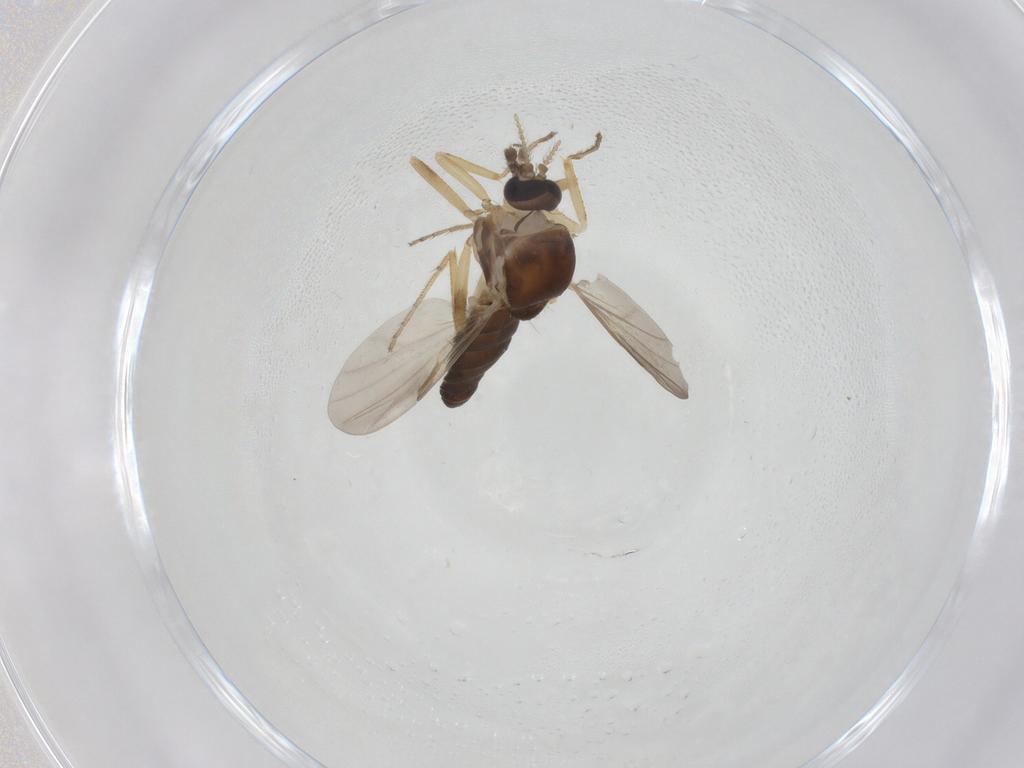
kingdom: Animalia
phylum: Arthropoda
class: Insecta
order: Diptera
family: Ceratopogonidae
